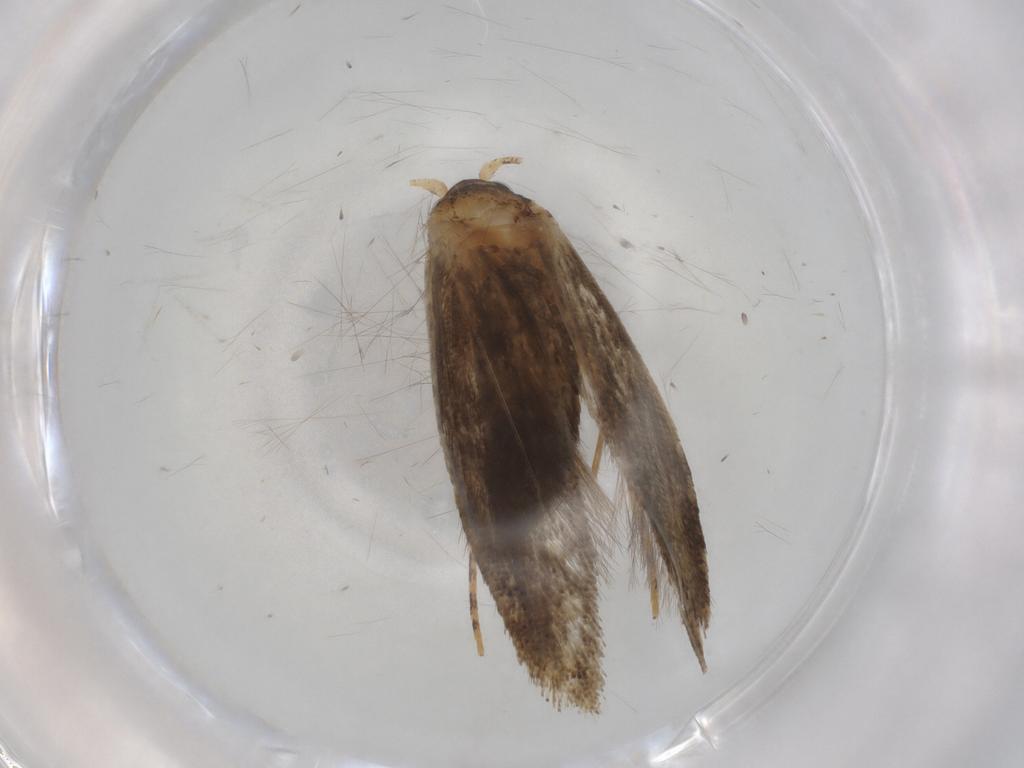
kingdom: Animalia
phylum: Arthropoda
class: Insecta
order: Lepidoptera
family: Nepticulidae
